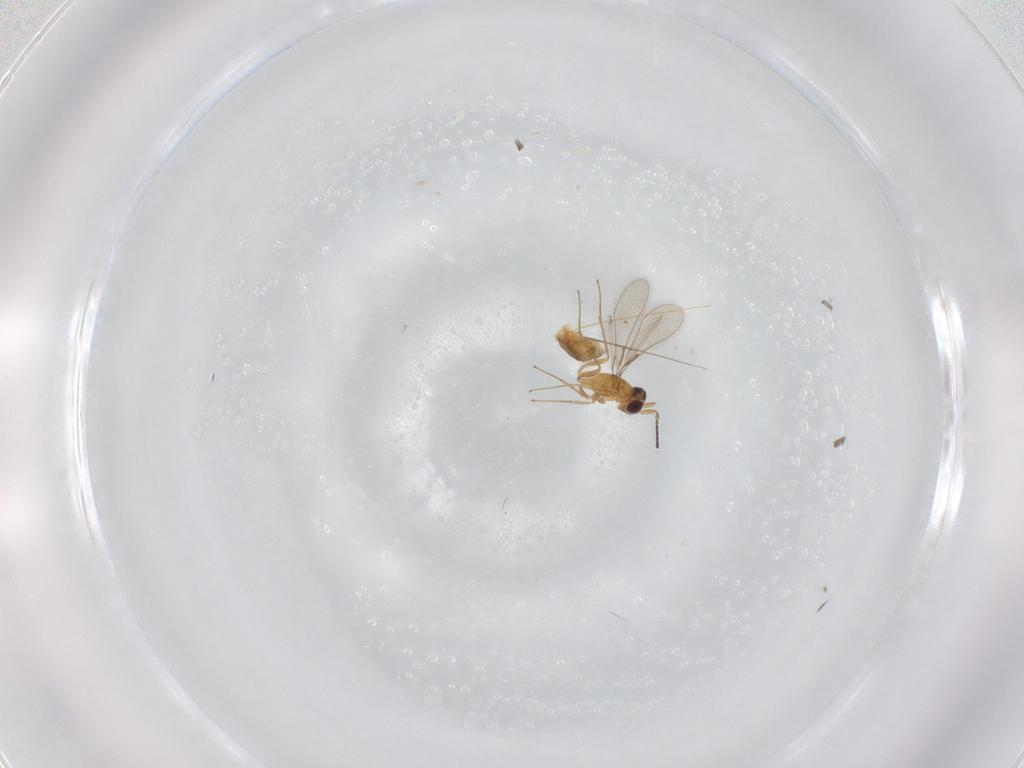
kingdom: Animalia
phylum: Arthropoda
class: Insecta
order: Hymenoptera
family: Mymaridae
